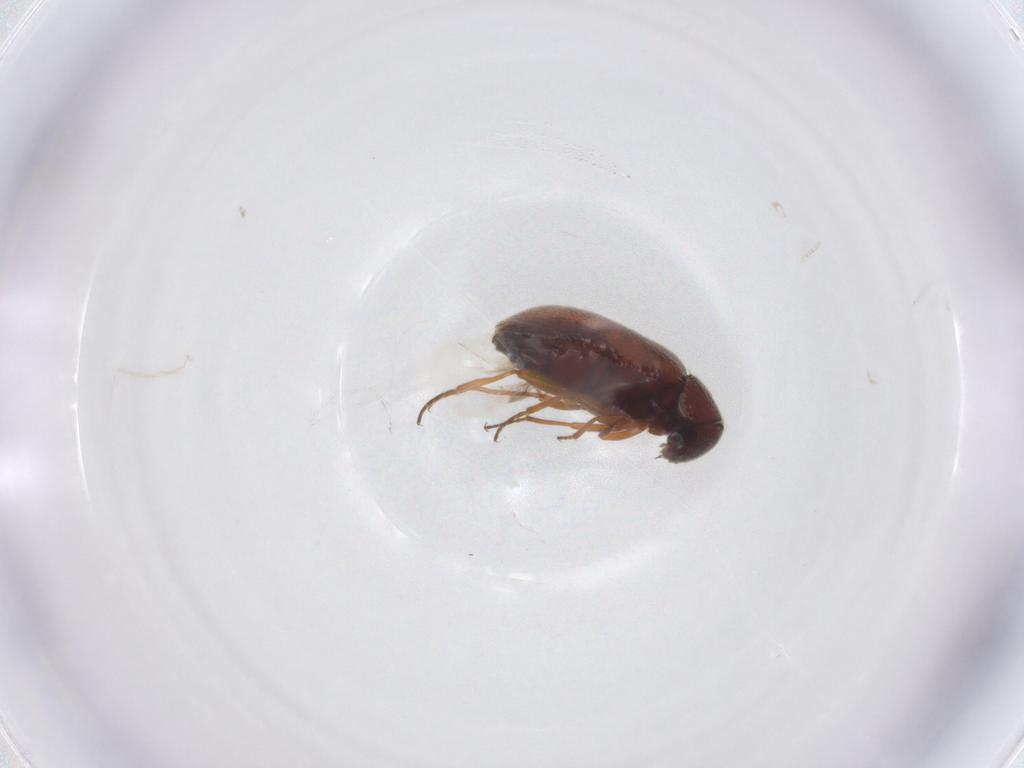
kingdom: Animalia
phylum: Arthropoda
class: Insecta
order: Coleoptera
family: Rhadalidae
